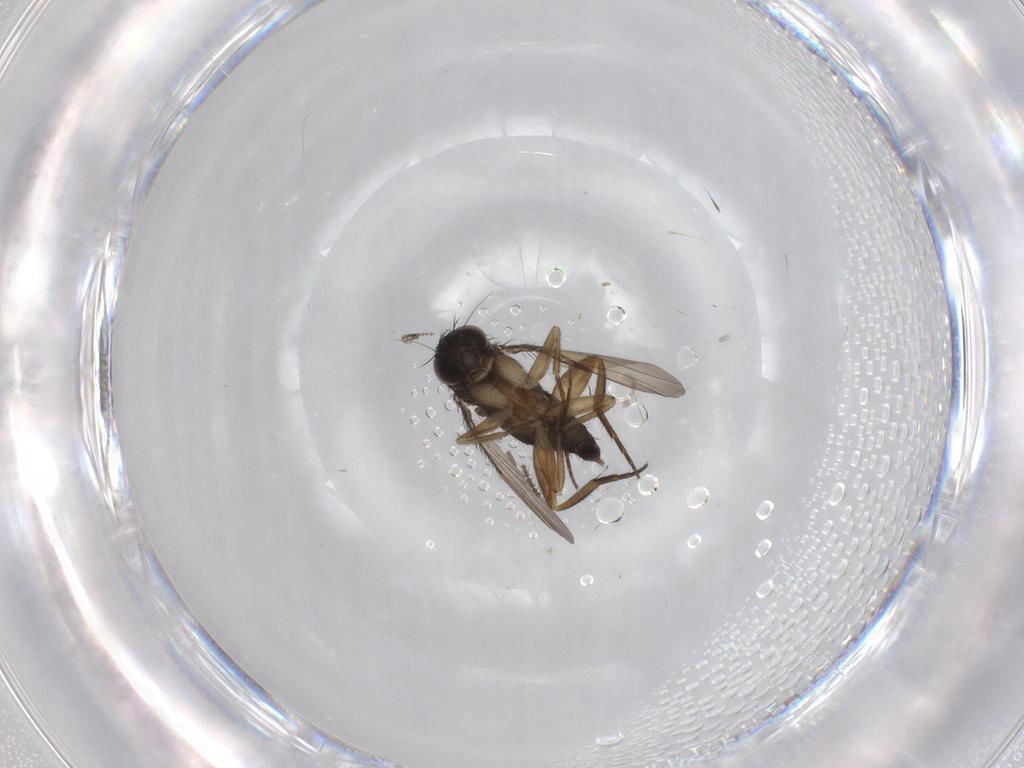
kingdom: Animalia
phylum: Arthropoda
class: Insecta
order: Diptera
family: Phoridae
